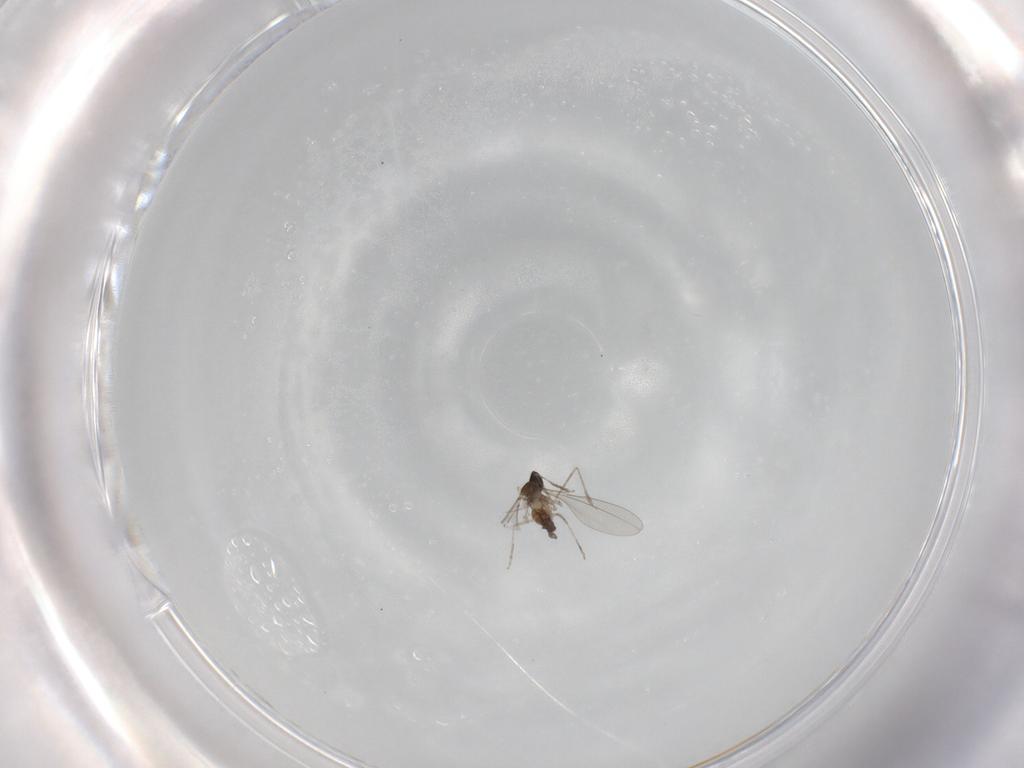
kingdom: Animalia
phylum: Arthropoda
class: Insecta
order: Diptera
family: Cecidomyiidae
